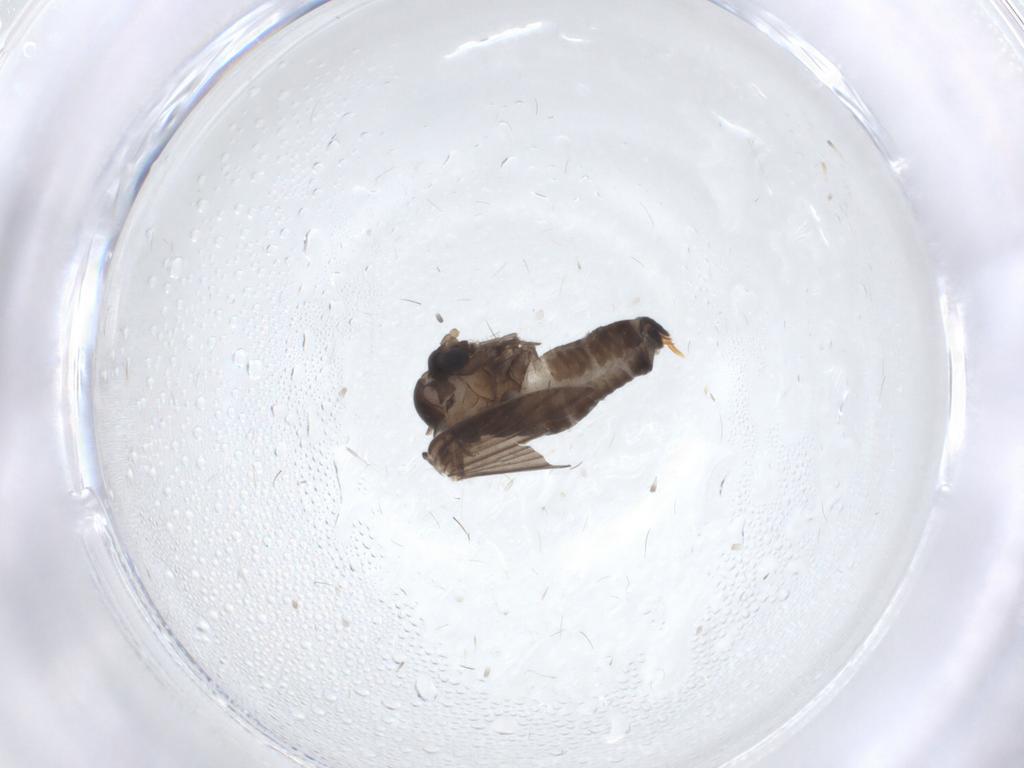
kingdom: Animalia
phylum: Arthropoda
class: Insecta
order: Diptera
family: Psychodidae
